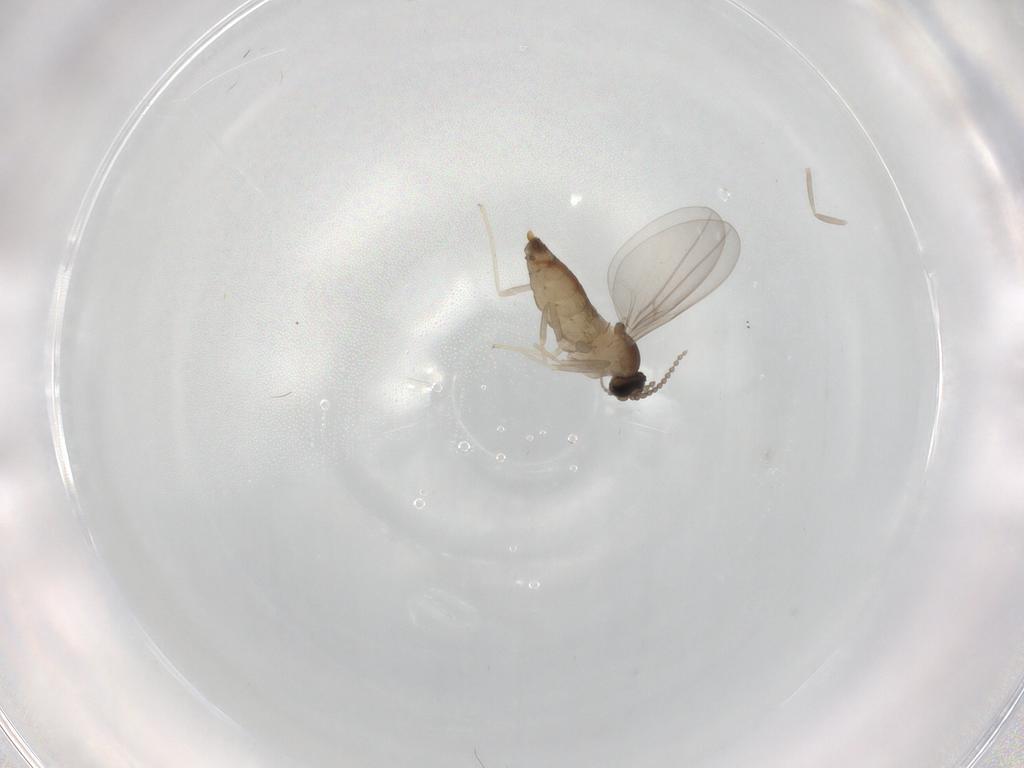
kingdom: Animalia
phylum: Arthropoda
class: Insecta
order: Diptera
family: Cecidomyiidae
